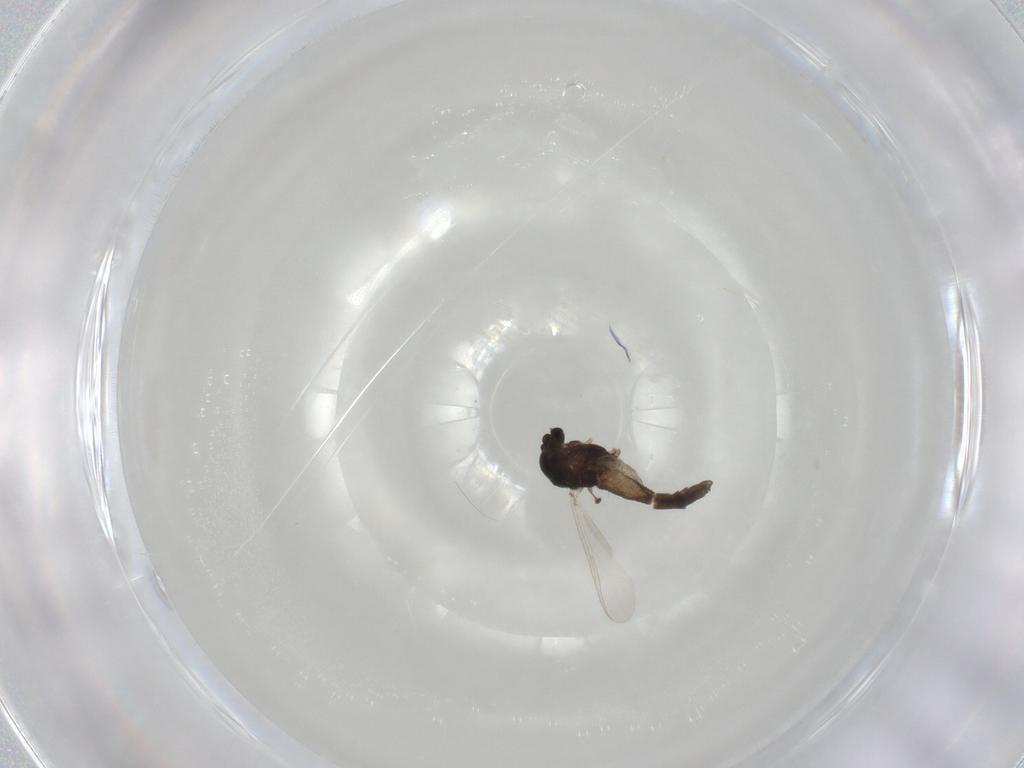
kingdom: Animalia
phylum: Arthropoda
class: Insecta
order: Diptera
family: Chironomidae
